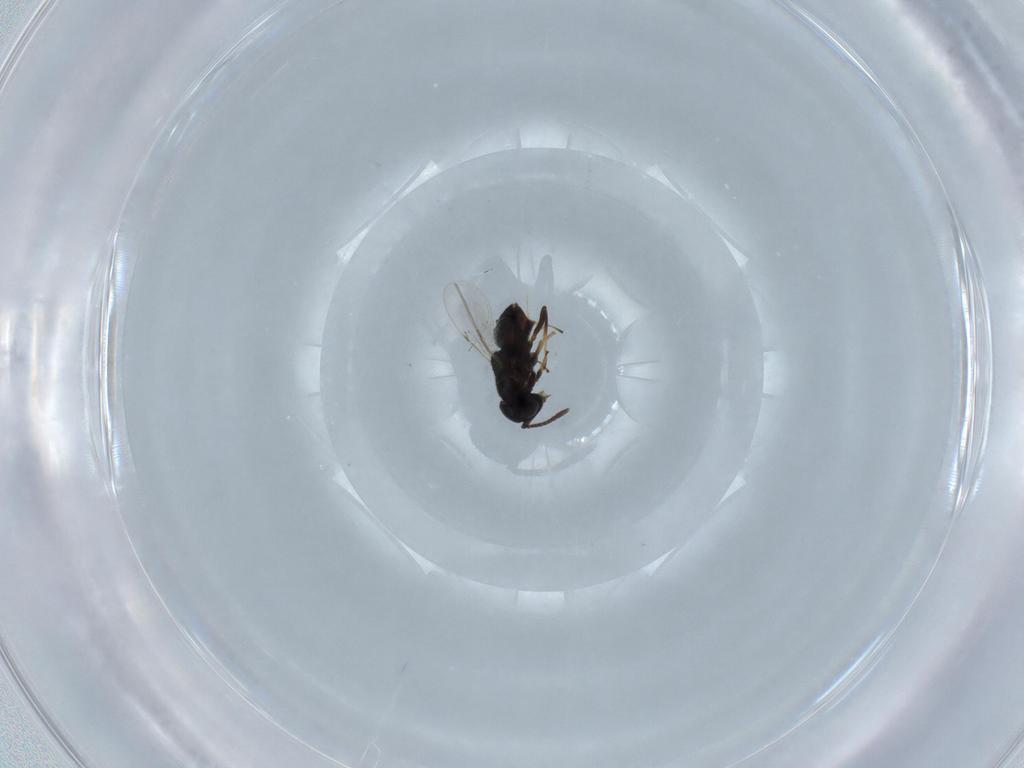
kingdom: Animalia
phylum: Arthropoda
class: Insecta
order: Hymenoptera
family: Encyrtidae
